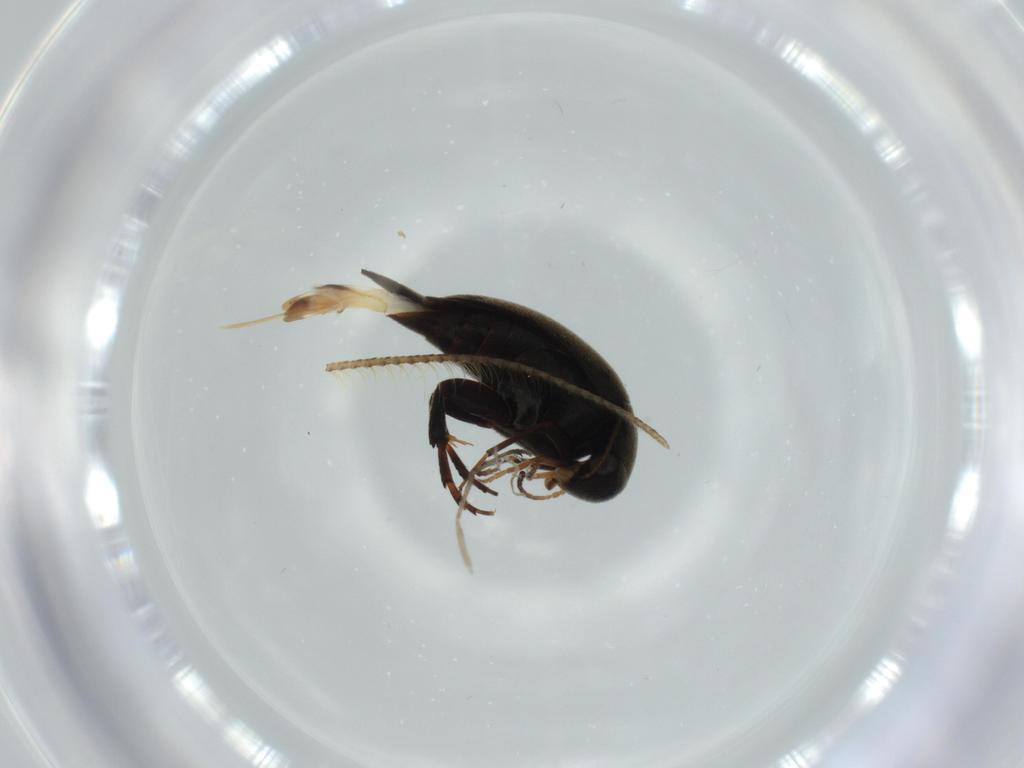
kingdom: Animalia
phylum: Arthropoda
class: Insecta
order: Coleoptera
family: Mordellidae
